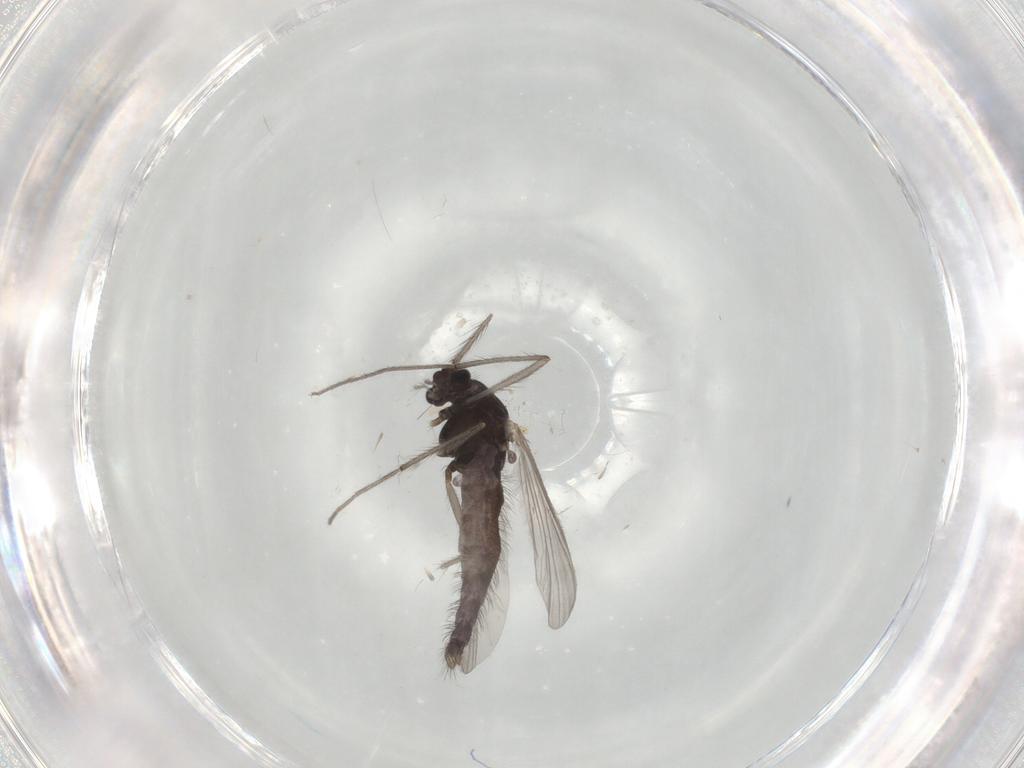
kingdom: Animalia
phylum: Arthropoda
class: Insecta
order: Diptera
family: Chironomidae
